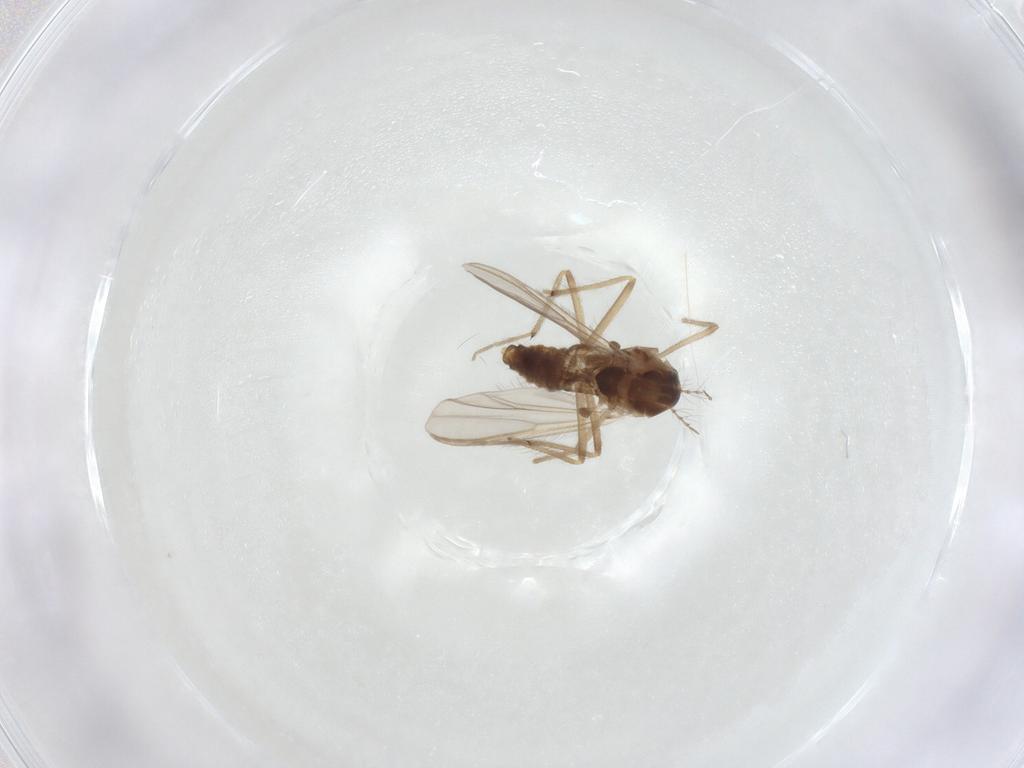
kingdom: Animalia
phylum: Arthropoda
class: Insecta
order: Diptera
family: Chironomidae
